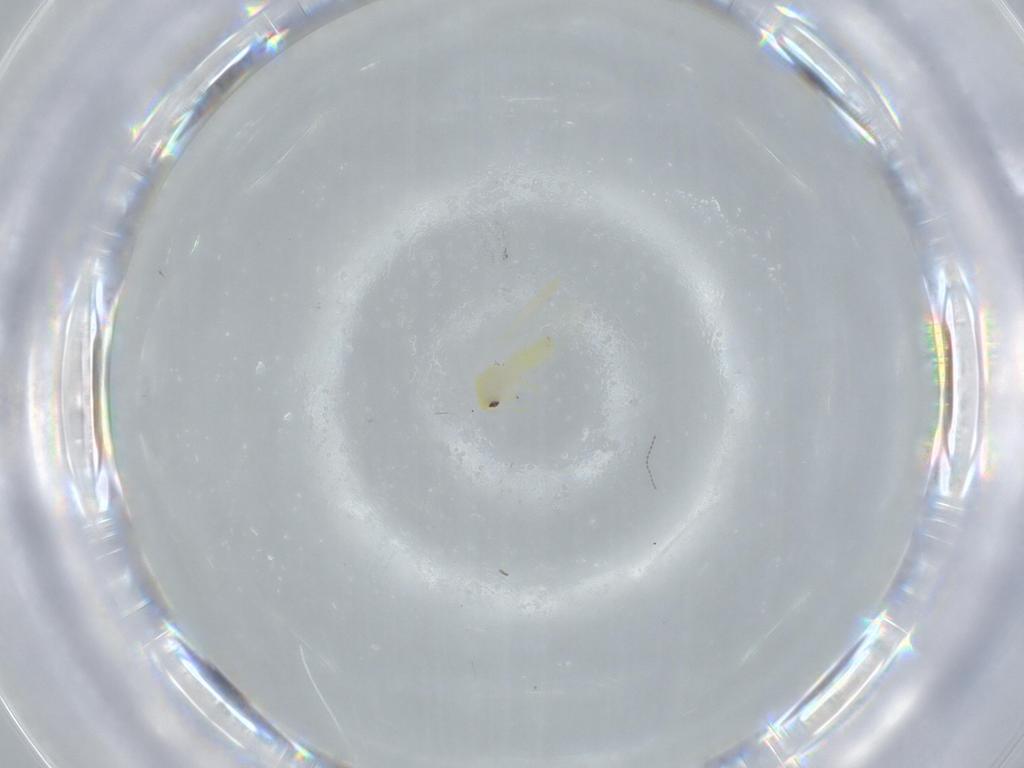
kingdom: Animalia
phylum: Arthropoda
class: Insecta
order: Hemiptera
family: Aleyrodidae
